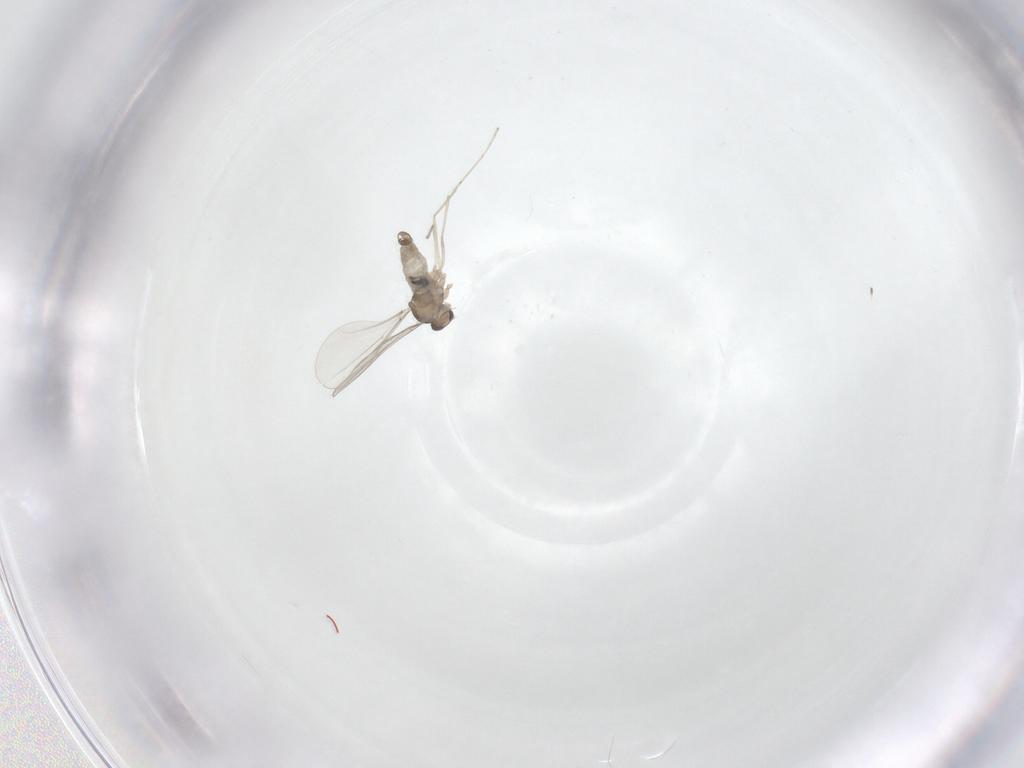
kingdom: Animalia
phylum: Arthropoda
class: Insecta
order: Diptera
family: Cecidomyiidae
